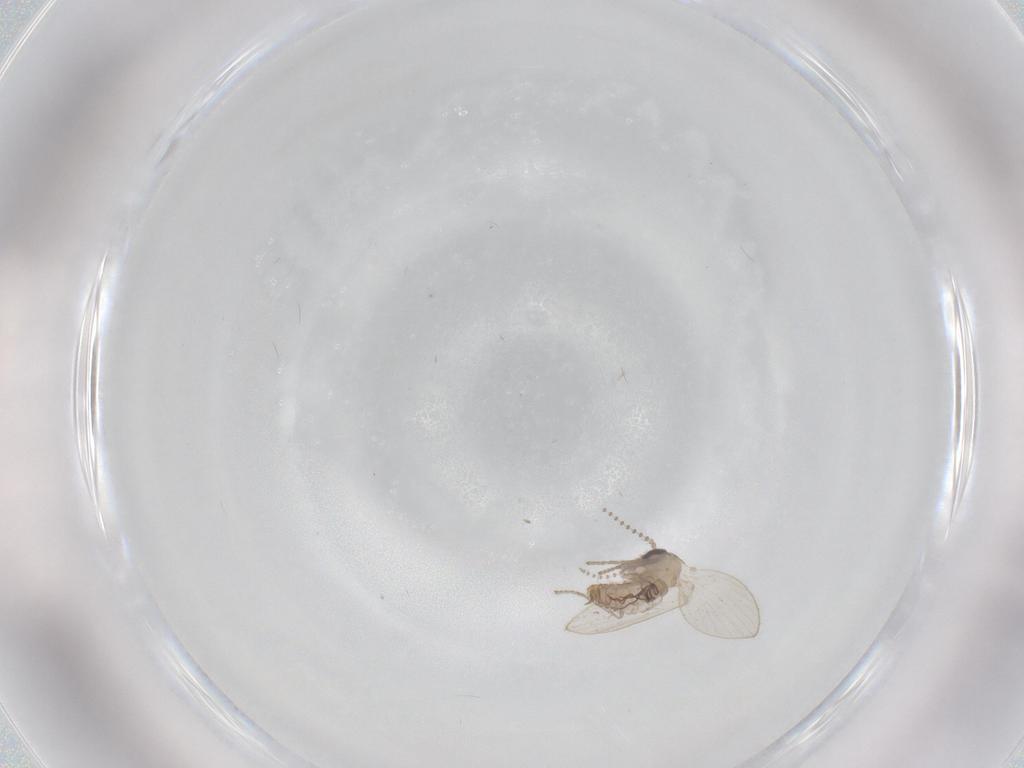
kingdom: Animalia
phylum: Arthropoda
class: Insecta
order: Diptera
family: Psychodidae
